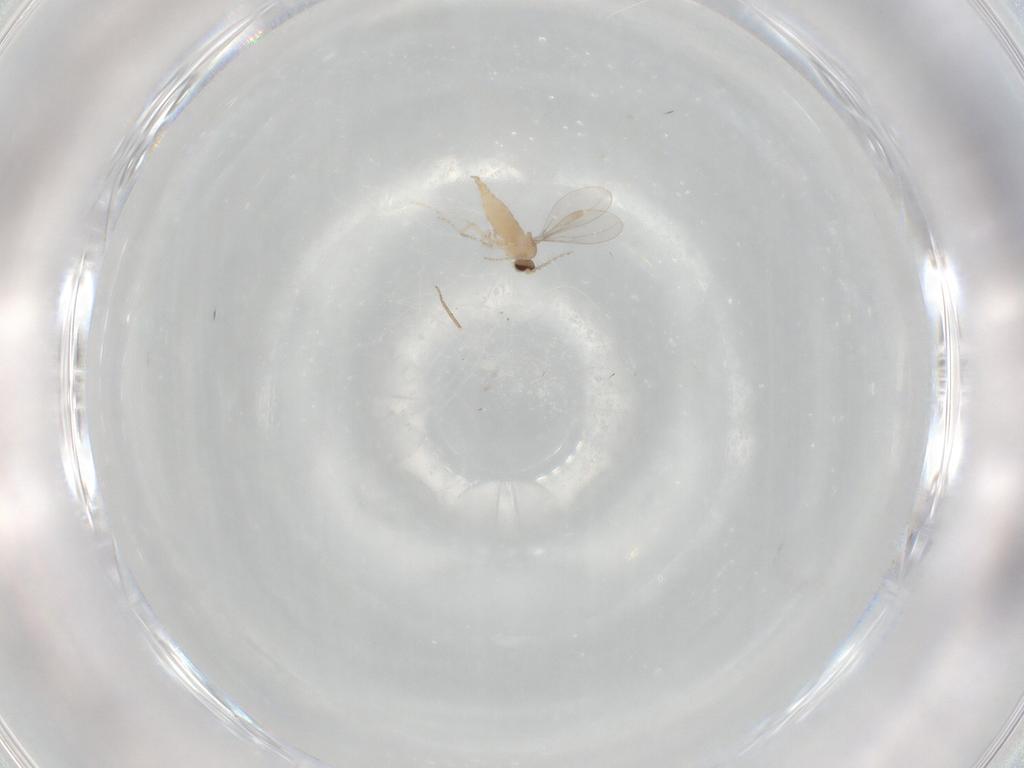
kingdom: Animalia
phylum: Arthropoda
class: Insecta
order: Diptera
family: Cecidomyiidae
